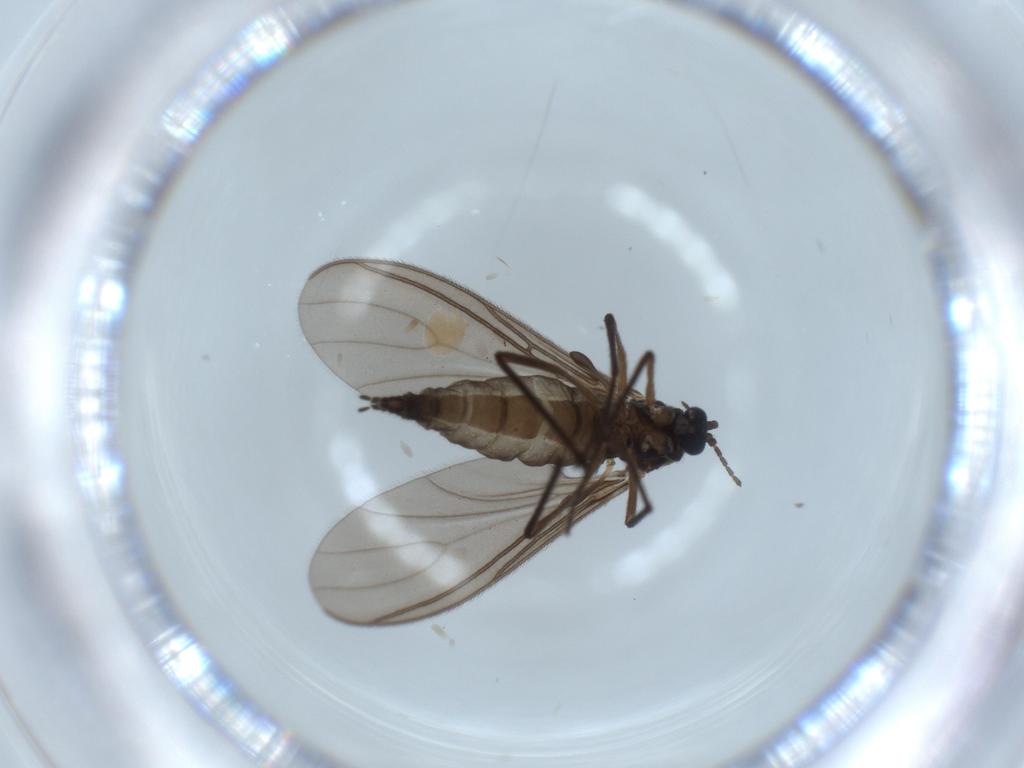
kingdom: Animalia
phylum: Arthropoda
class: Insecta
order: Diptera
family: Sciaridae
